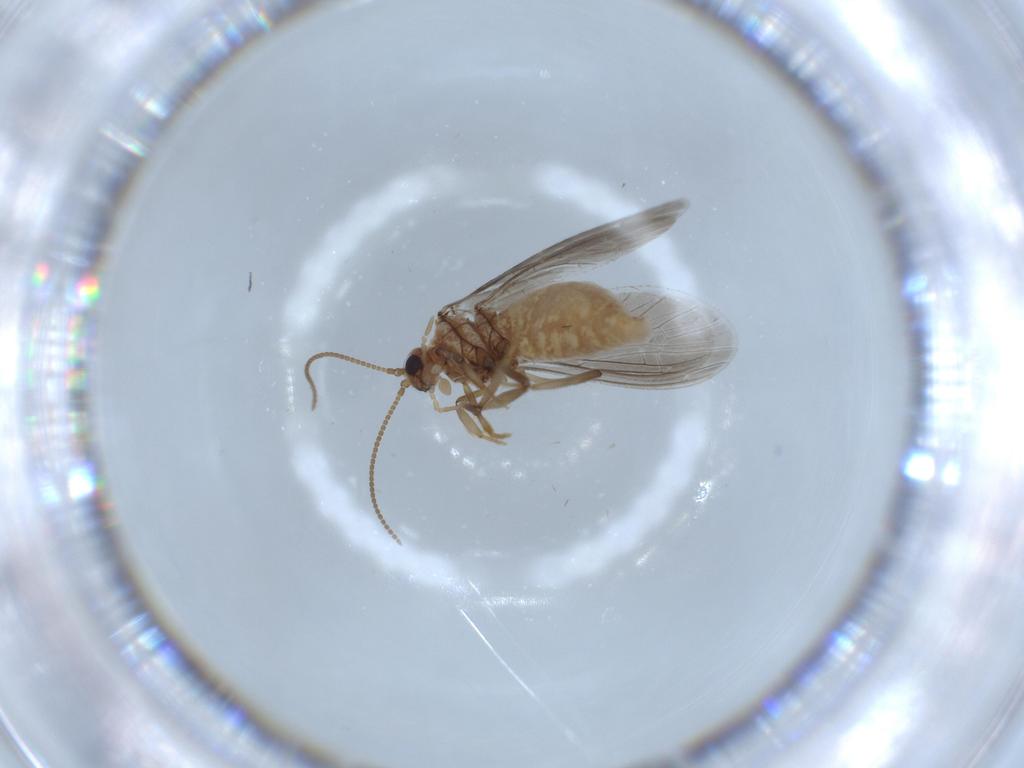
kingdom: Animalia
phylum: Arthropoda
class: Insecta
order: Neuroptera
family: Coniopterygidae
